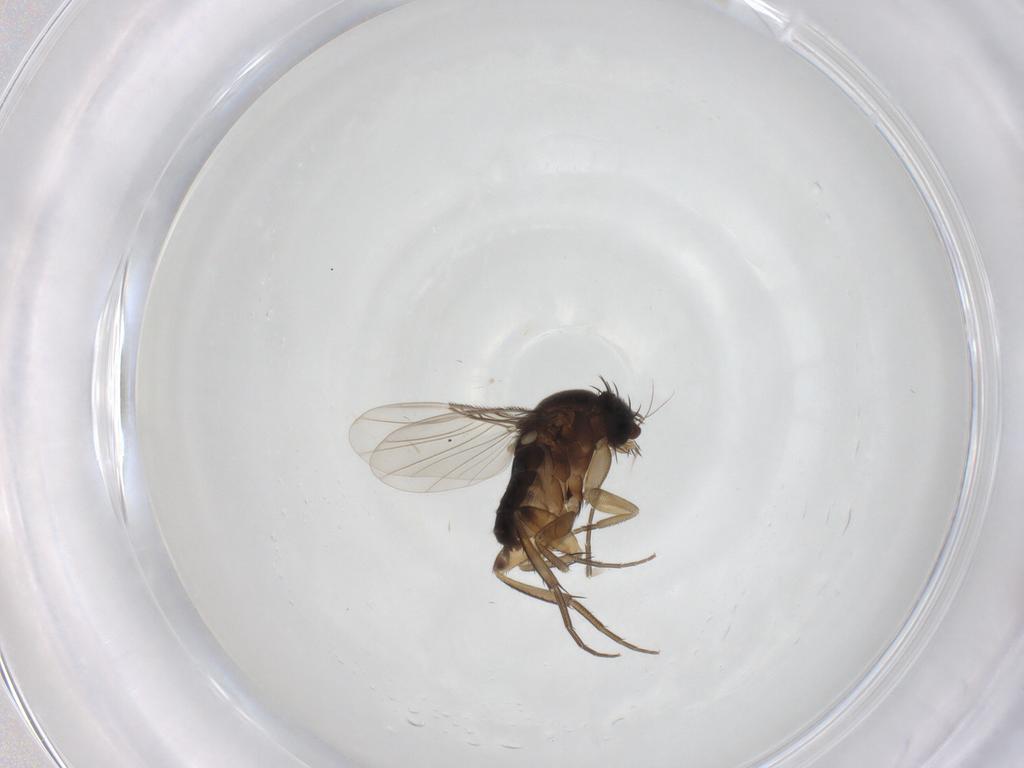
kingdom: Animalia
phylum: Arthropoda
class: Insecta
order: Diptera
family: Phoridae
